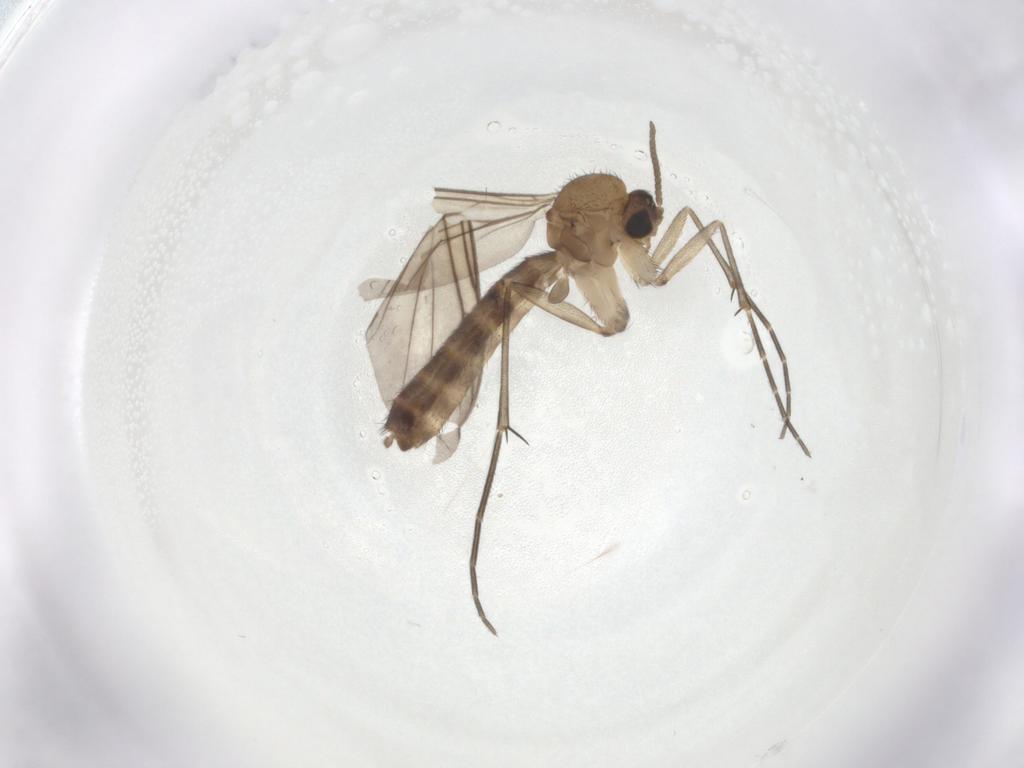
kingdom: Animalia
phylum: Arthropoda
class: Insecta
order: Diptera
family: Keroplatidae
